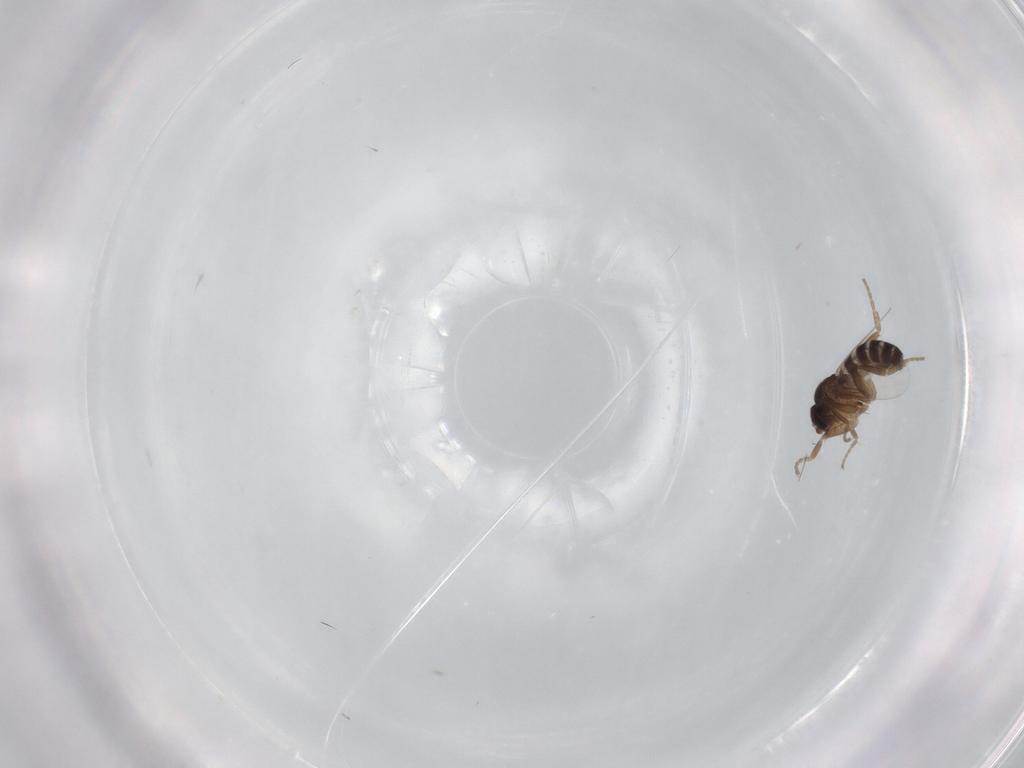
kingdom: Animalia
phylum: Arthropoda
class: Insecta
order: Diptera
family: Phoridae
